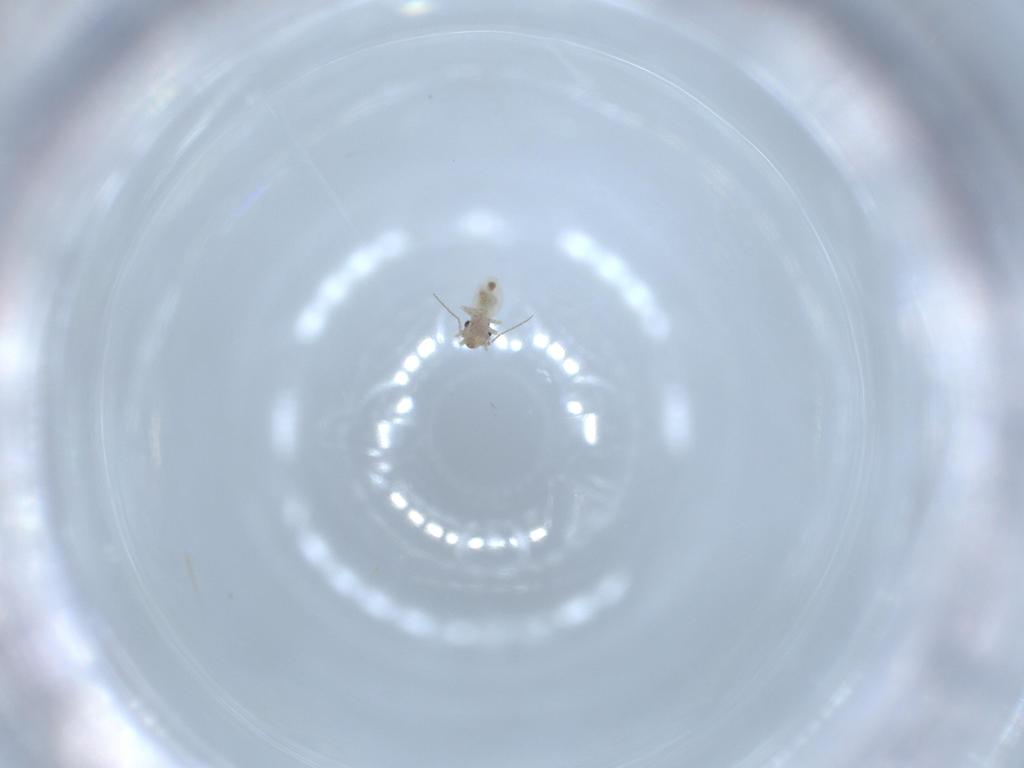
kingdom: Animalia
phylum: Arthropoda
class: Insecta
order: Psocodea
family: Lepidopsocidae
